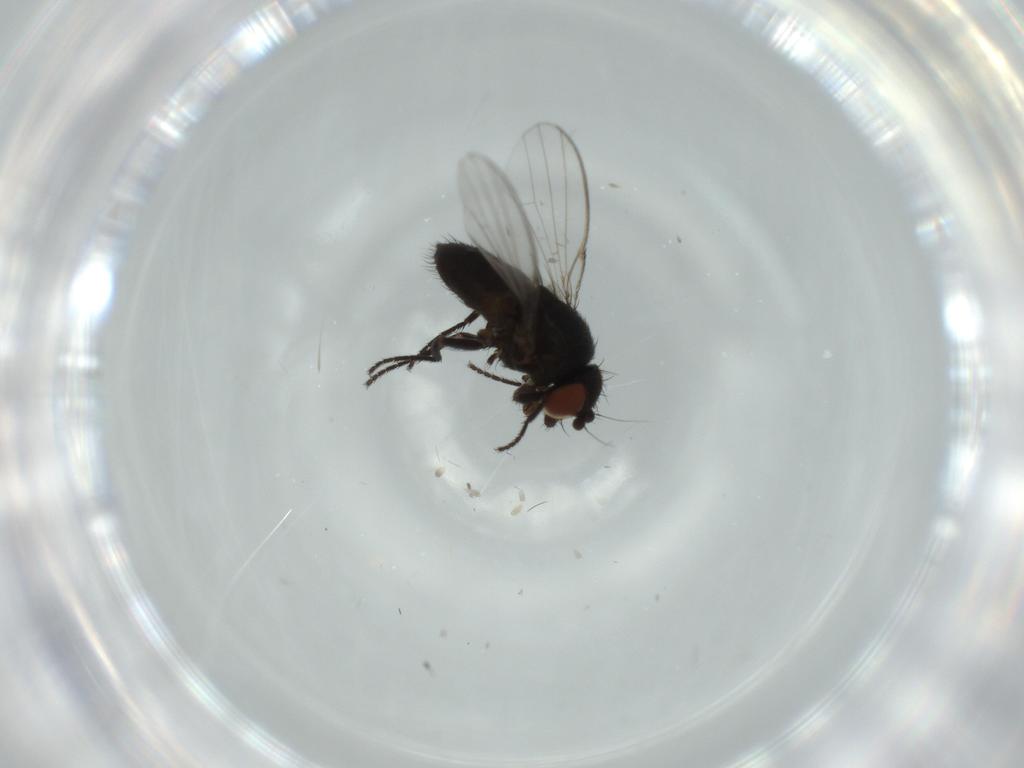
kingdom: Animalia
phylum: Arthropoda
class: Insecta
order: Diptera
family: Milichiidae
